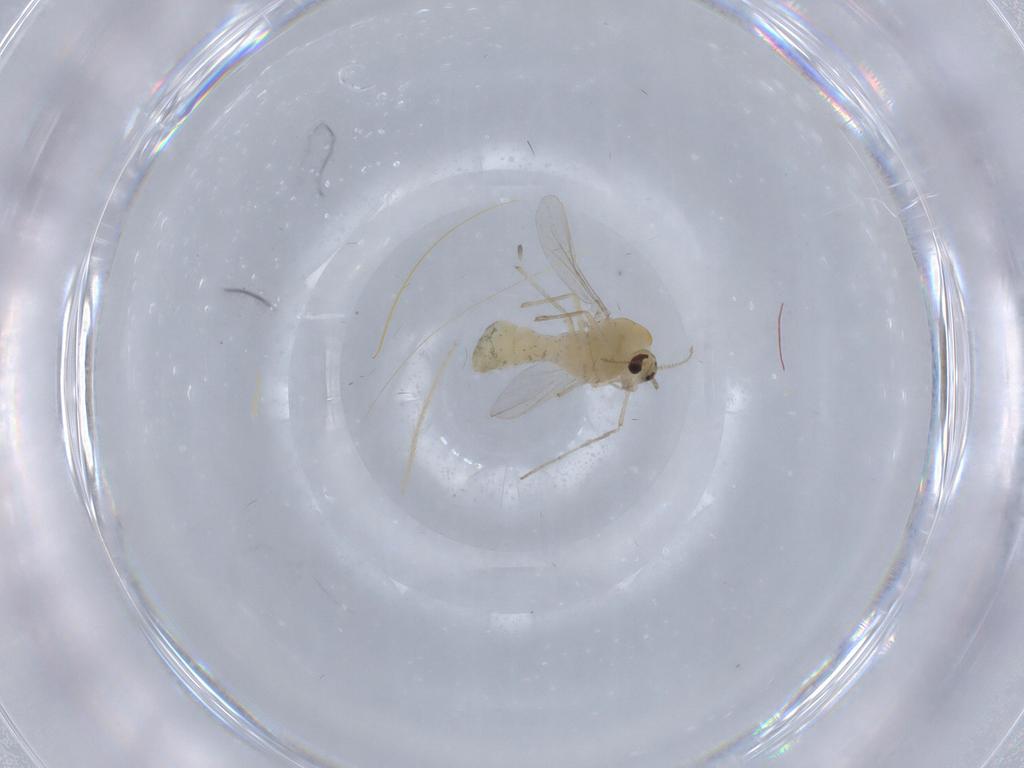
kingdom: Animalia
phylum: Arthropoda
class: Insecta
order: Diptera
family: Chironomidae
